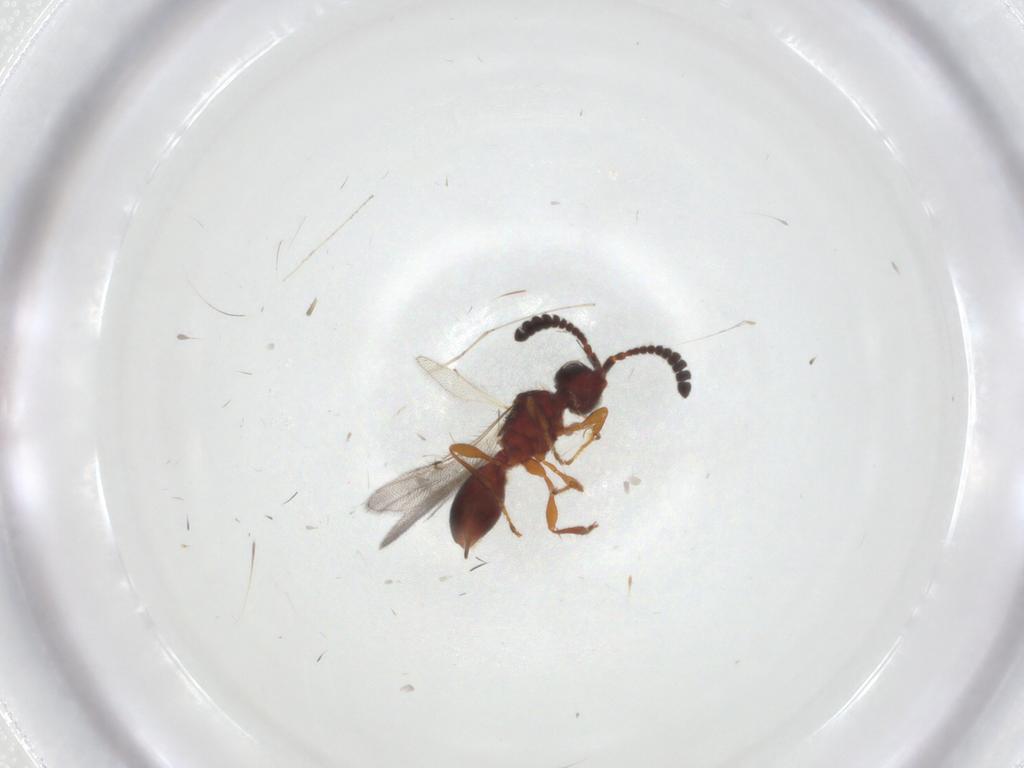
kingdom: Animalia
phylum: Arthropoda
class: Insecta
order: Hymenoptera
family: Diapriidae
